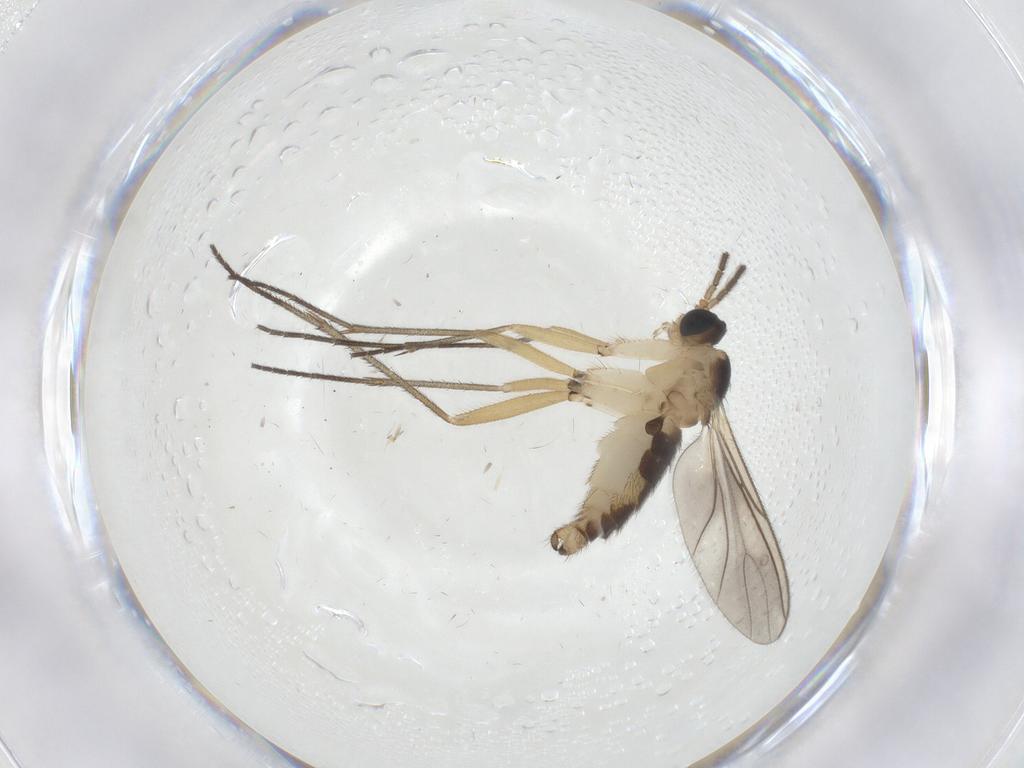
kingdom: Animalia
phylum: Arthropoda
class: Insecta
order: Diptera
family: Sciaridae
